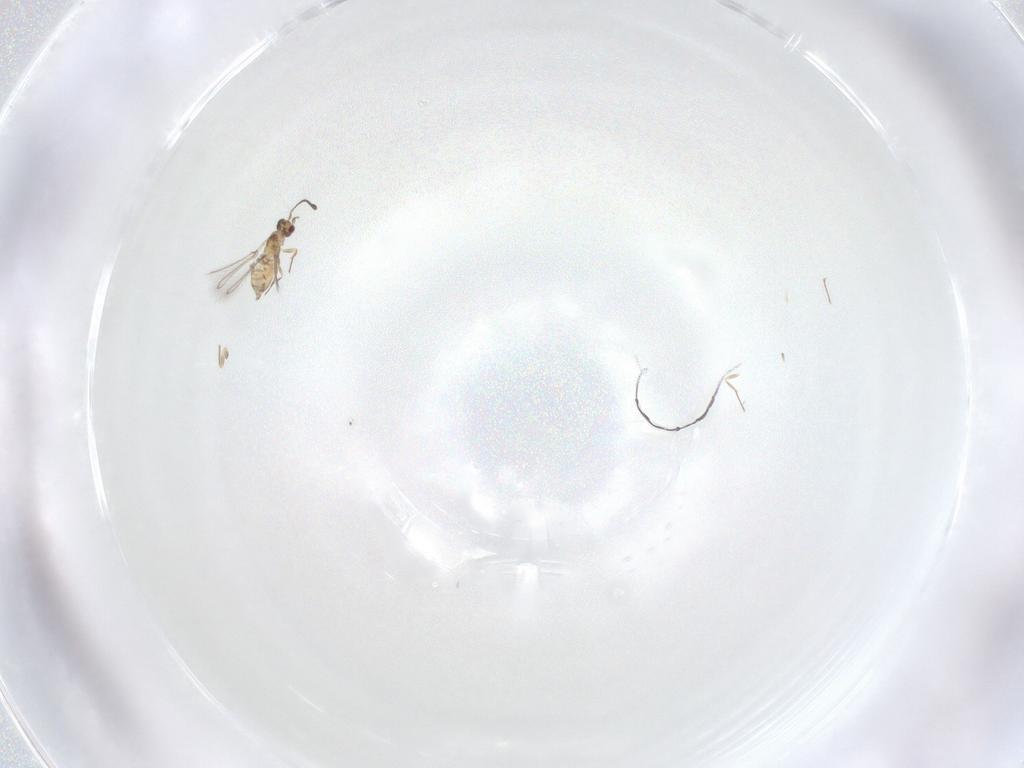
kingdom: Animalia
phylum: Arthropoda
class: Insecta
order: Hymenoptera
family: Mymaridae
